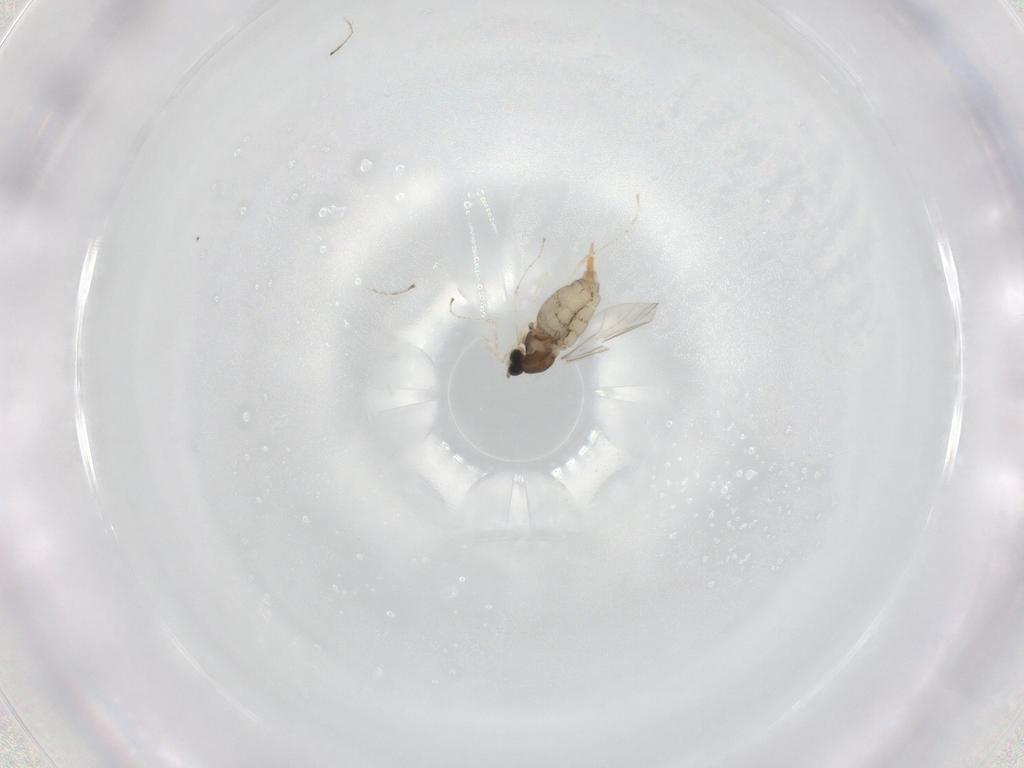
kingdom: Animalia
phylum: Arthropoda
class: Insecta
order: Diptera
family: Cecidomyiidae
